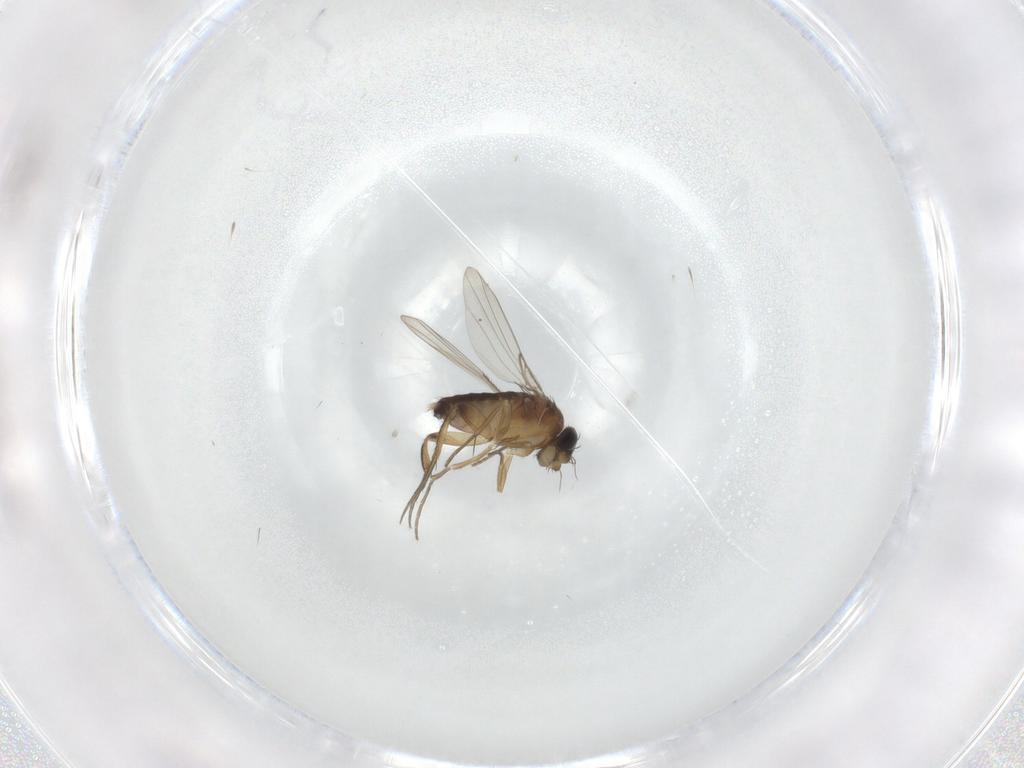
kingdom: Animalia
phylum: Arthropoda
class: Insecta
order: Diptera
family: Phoridae
